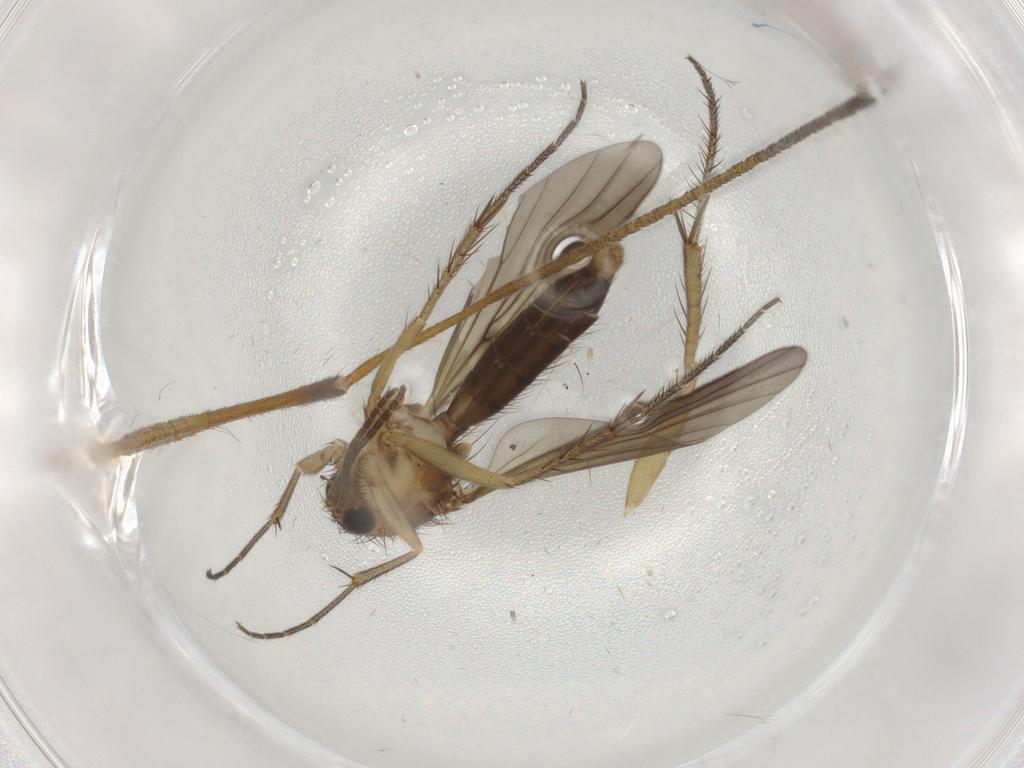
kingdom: Animalia
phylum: Arthropoda
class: Insecta
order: Diptera
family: Chironomidae
